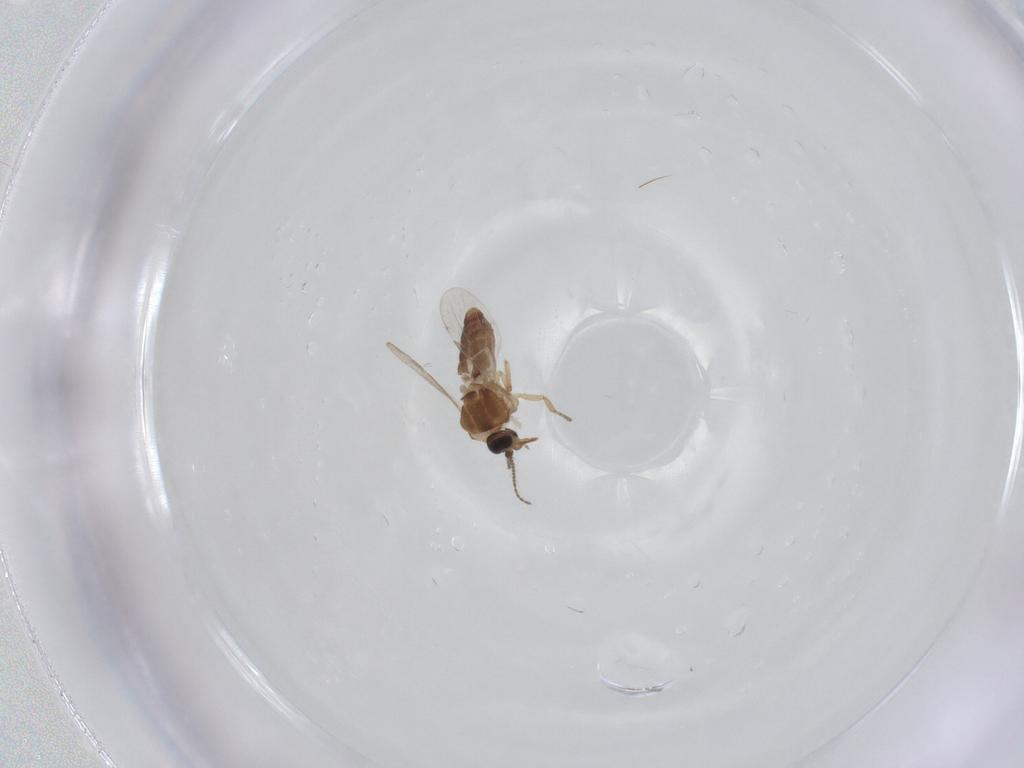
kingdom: Animalia
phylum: Arthropoda
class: Insecta
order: Diptera
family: Ceratopogonidae
